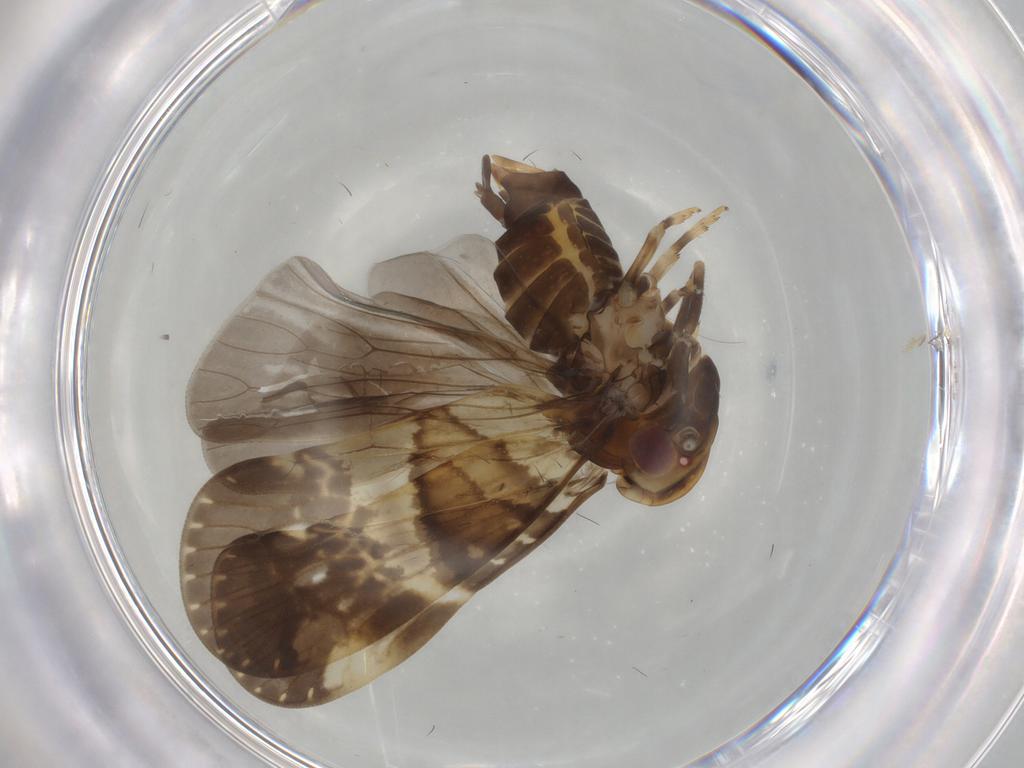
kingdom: Animalia
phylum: Arthropoda
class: Insecta
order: Hemiptera
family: Cixiidae
